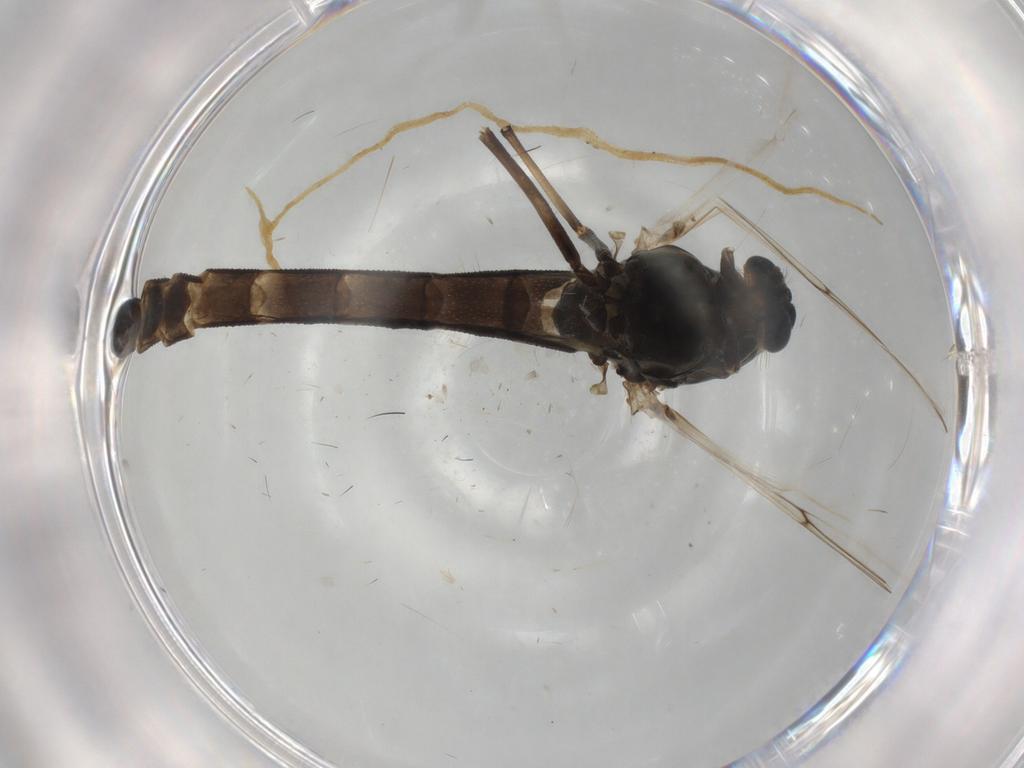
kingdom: Animalia
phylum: Arthropoda
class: Insecta
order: Diptera
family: Chironomidae
